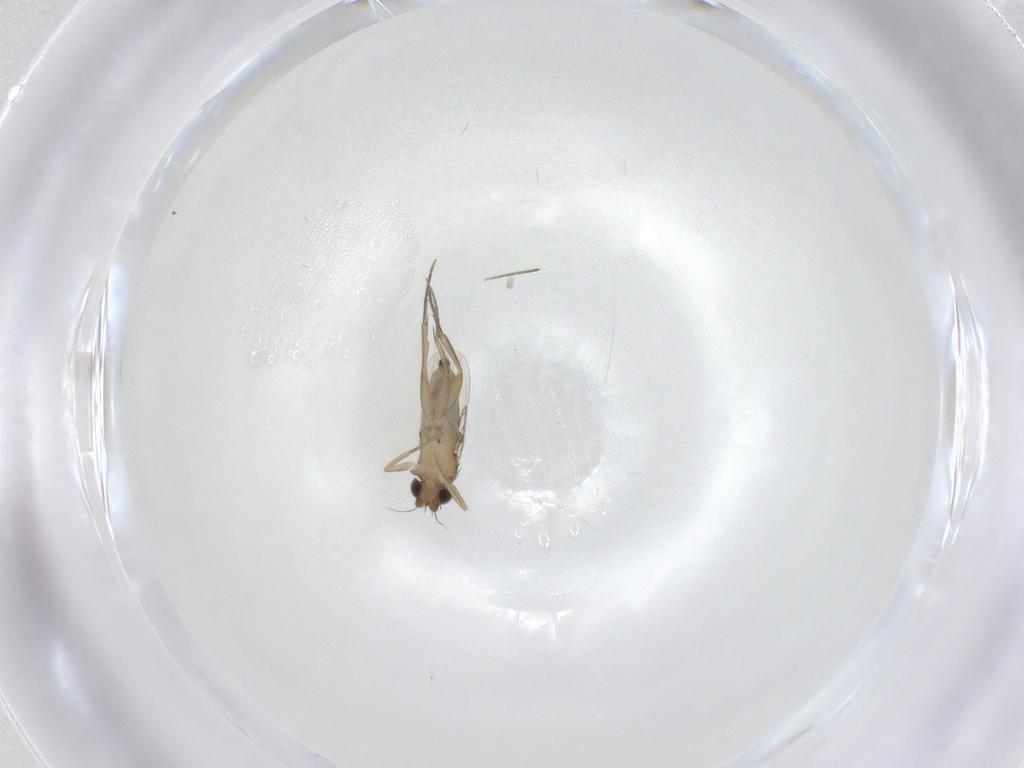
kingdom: Animalia
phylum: Arthropoda
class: Insecta
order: Diptera
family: Phoridae
